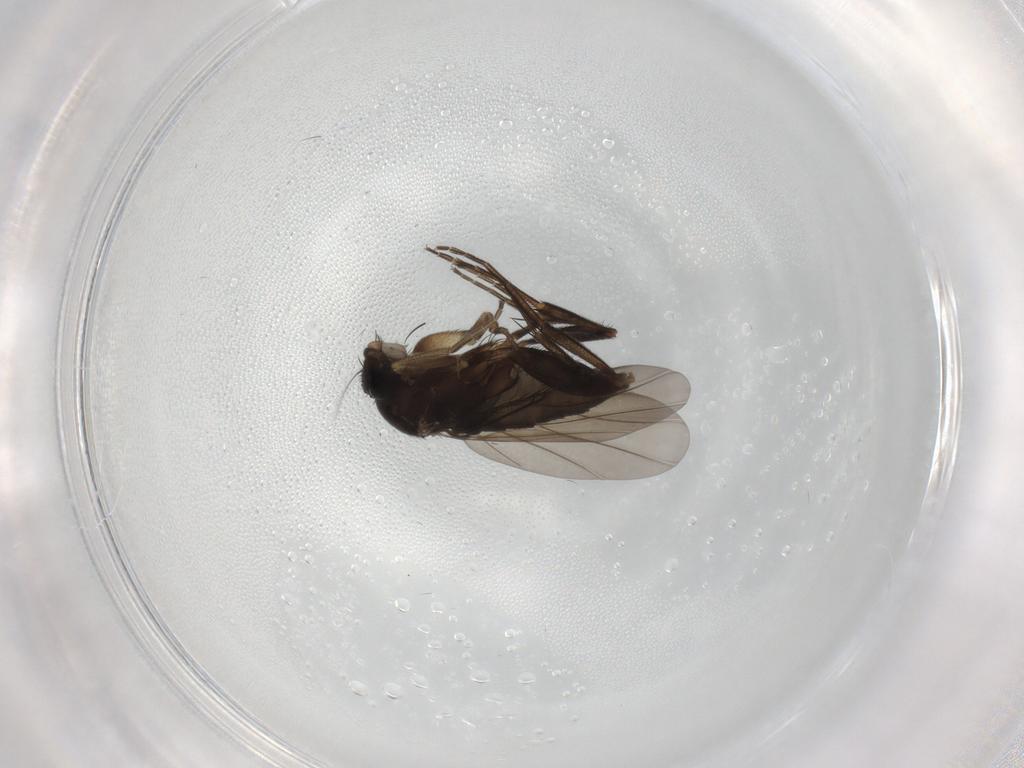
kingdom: Animalia
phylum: Arthropoda
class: Insecta
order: Diptera
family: Phoridae
